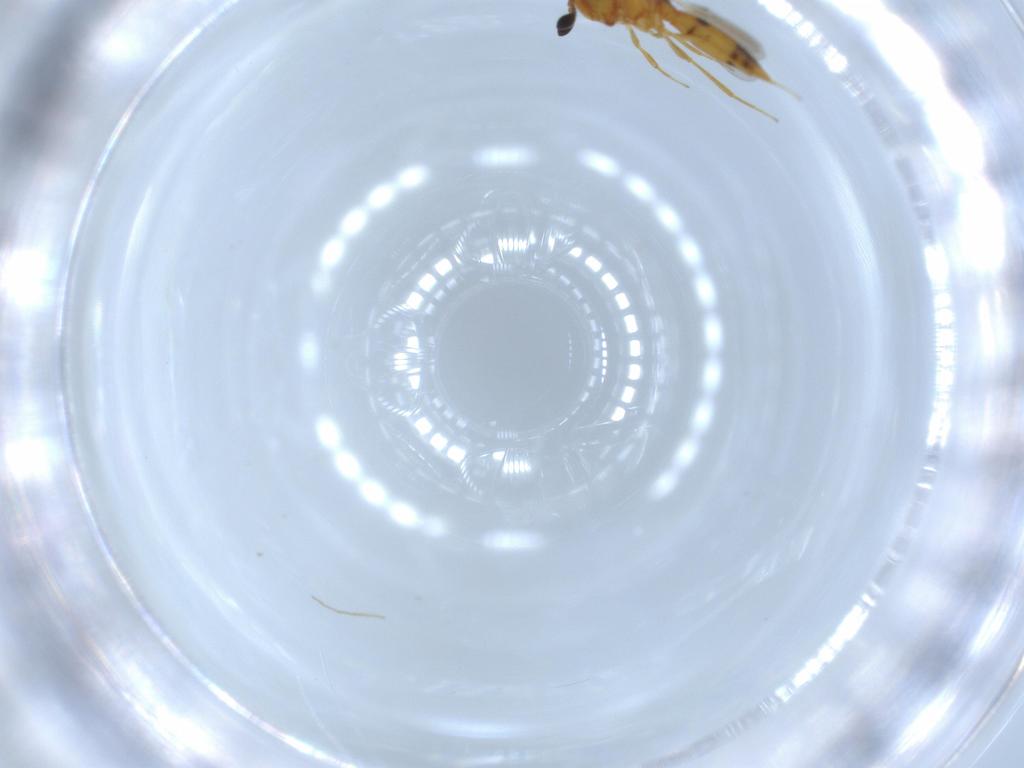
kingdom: Animalia
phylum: Arthropoda
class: Insecta
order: Hymenoptera
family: Scelionidae
